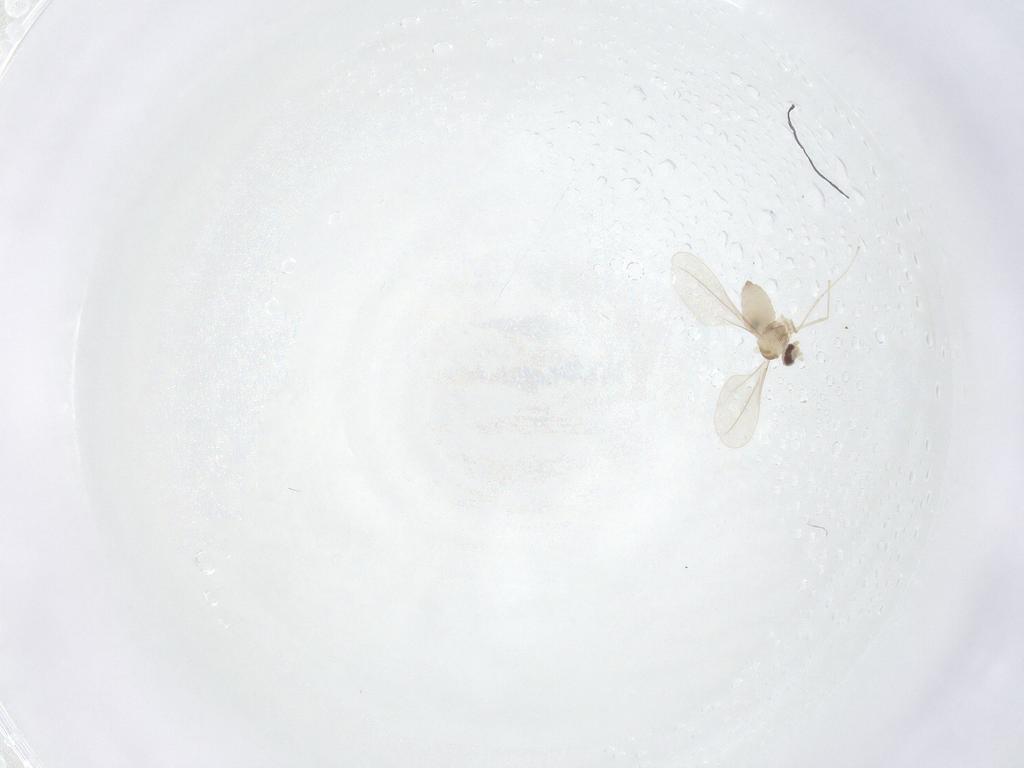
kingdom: Animalia
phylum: Arthropoda
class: Insecta
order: Diptera
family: Cecidomyiidae
